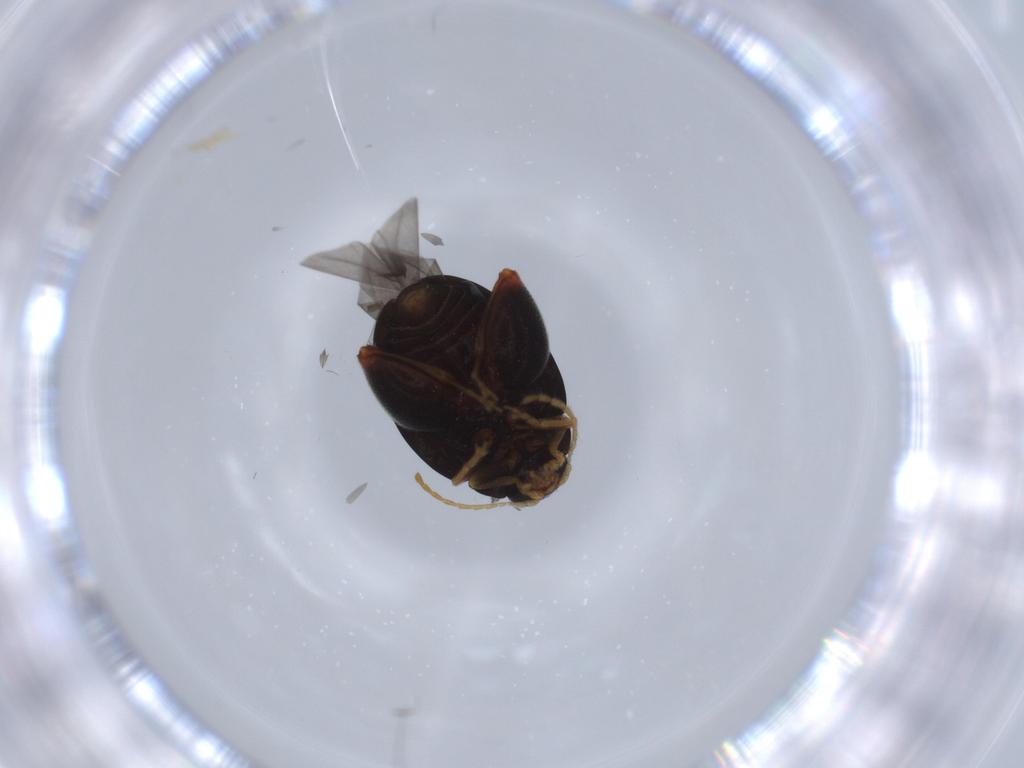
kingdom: Animalia
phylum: Arthropoda
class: Insecta
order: Coleoptera
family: Chrysomelidae
